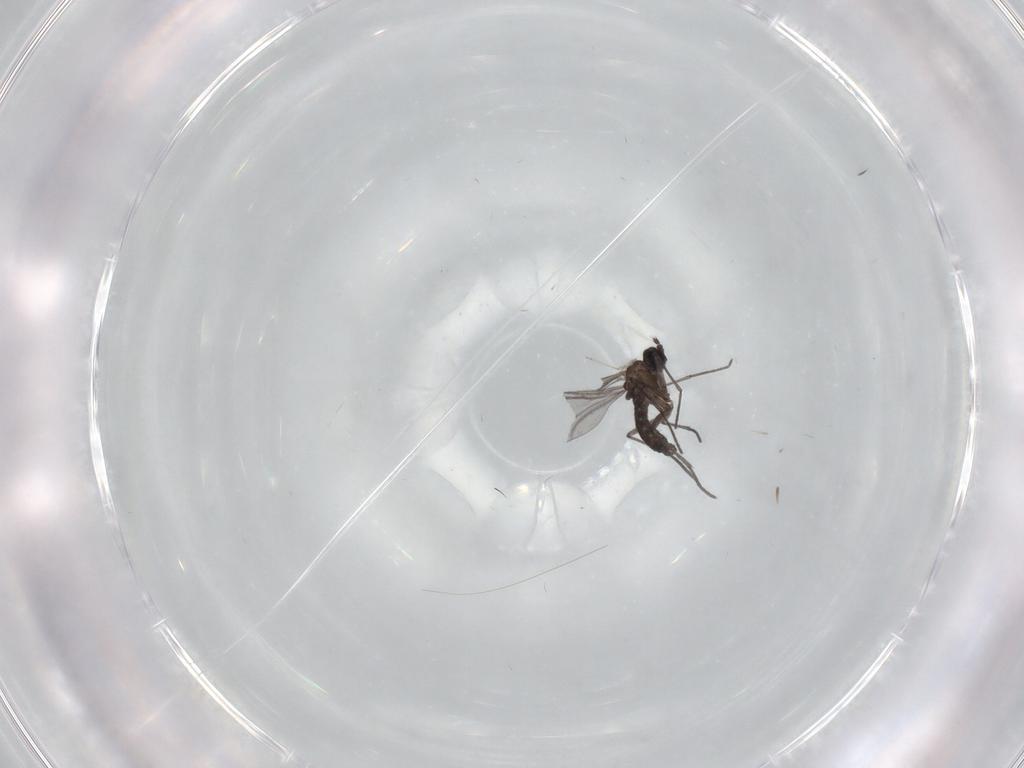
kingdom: Animalia
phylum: Arthropoda
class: Insecta
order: Diptera
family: Cecidomyiidae
